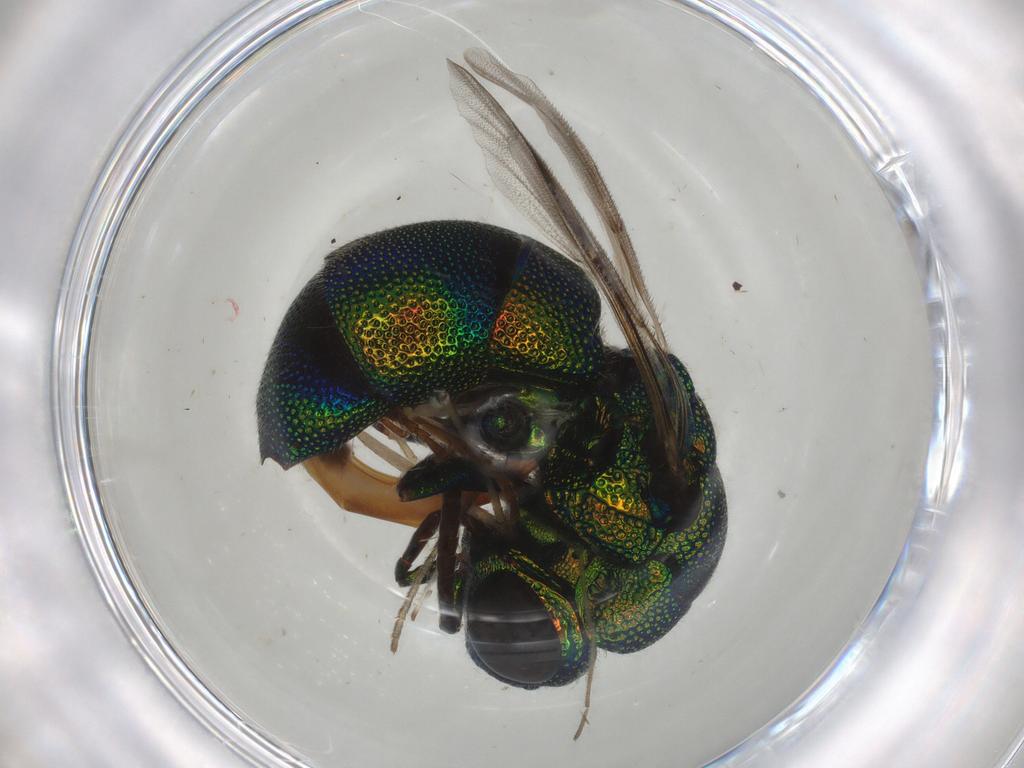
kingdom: Animalia
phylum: Arthropoda
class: Insecta
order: Hymenoptera
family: Chrysididae
